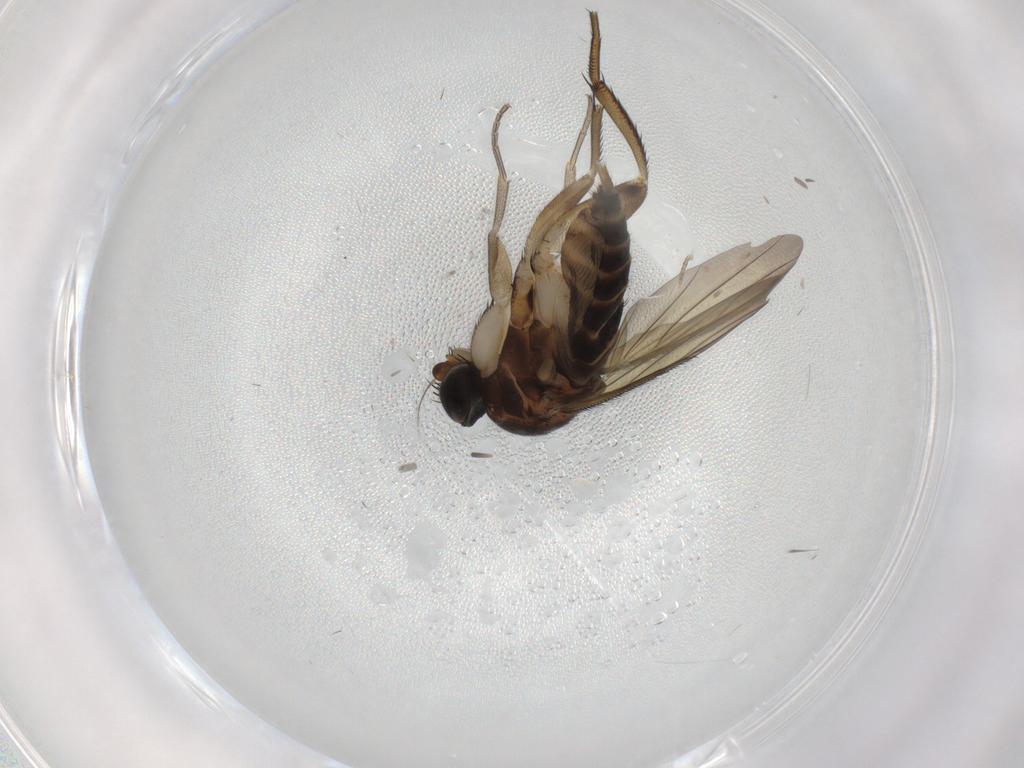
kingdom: Animalia
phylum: Arthropoda
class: Insecta
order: Diptera
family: Phoridae
